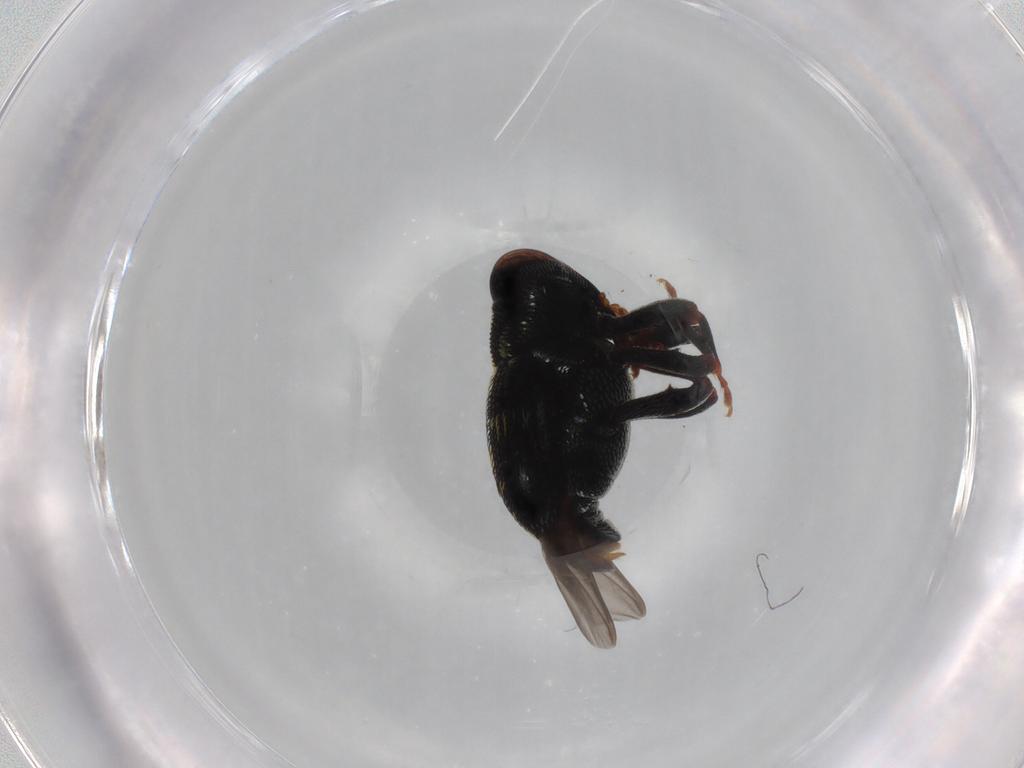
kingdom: Animalia
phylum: Arthropoda
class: Insecta
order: Coleoptera
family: Curculionidae
